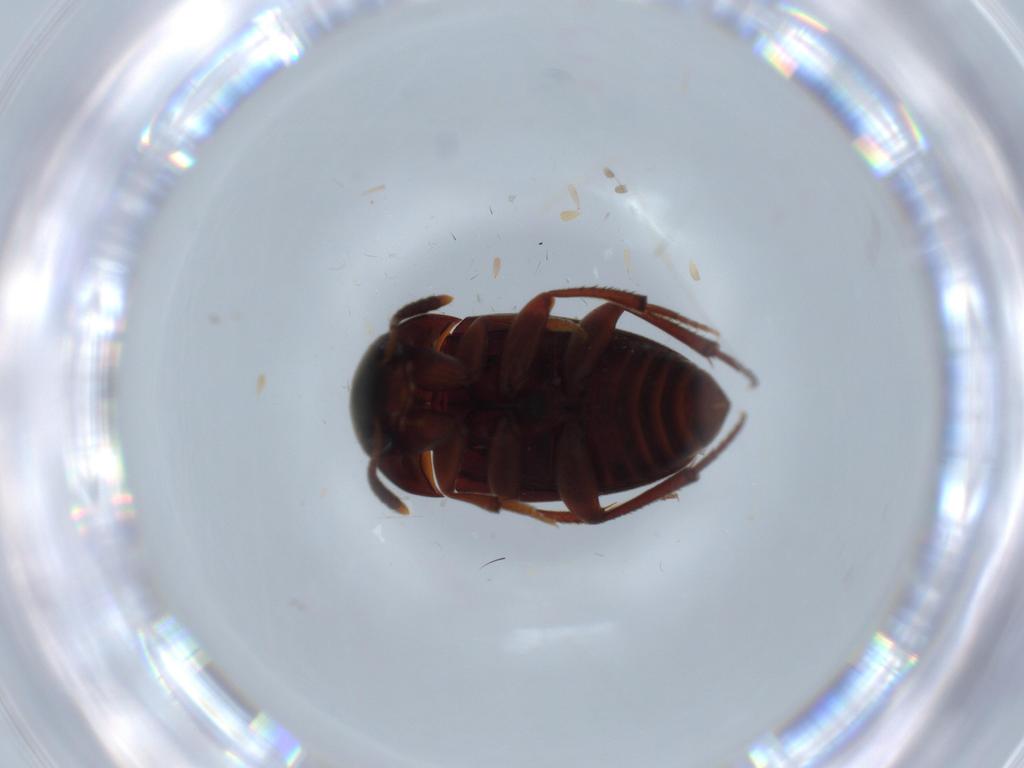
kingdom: Animalia
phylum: Arthropoda
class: Insecta
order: Coleoptera
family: Leiodidae
